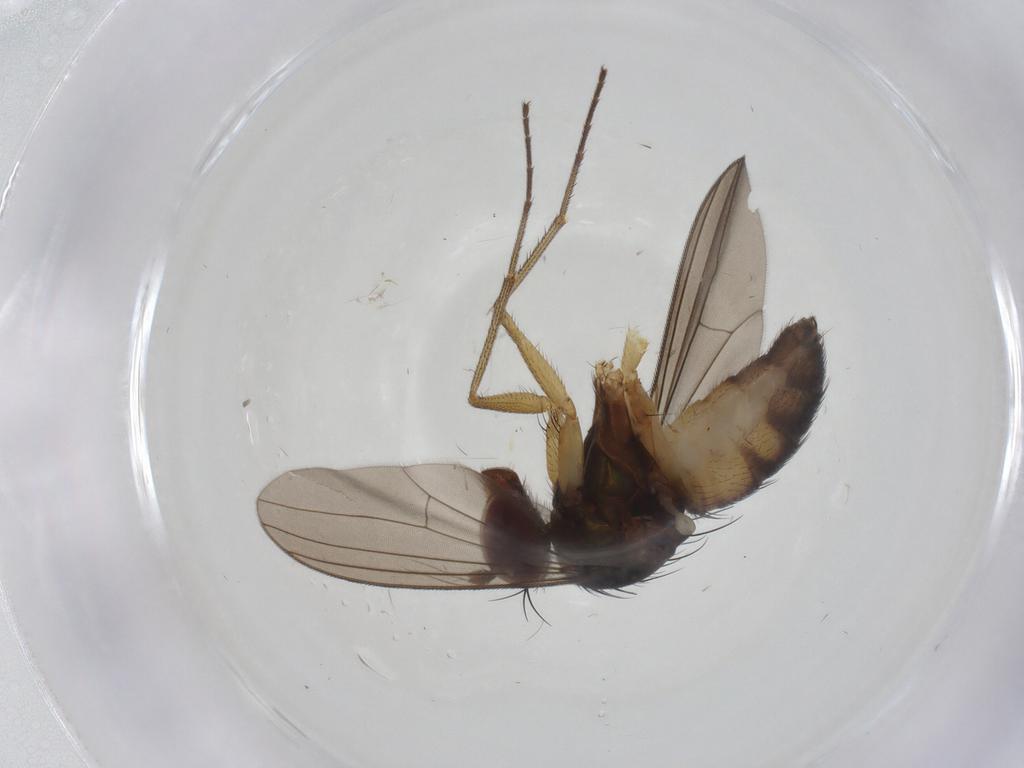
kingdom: Animalia
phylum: Arthropoda
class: Insecta
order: Diptera
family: Dolichopodidae
